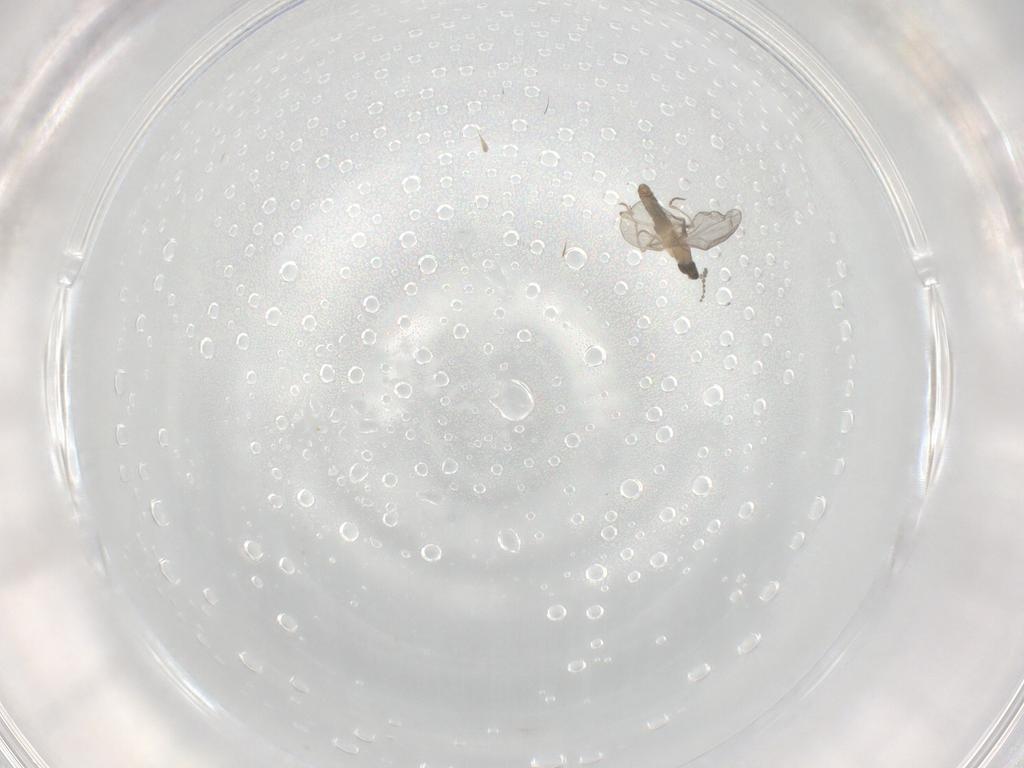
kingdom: Animalia
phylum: Arthropoda
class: Insecta
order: Diptera
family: Cecidomyiidae
